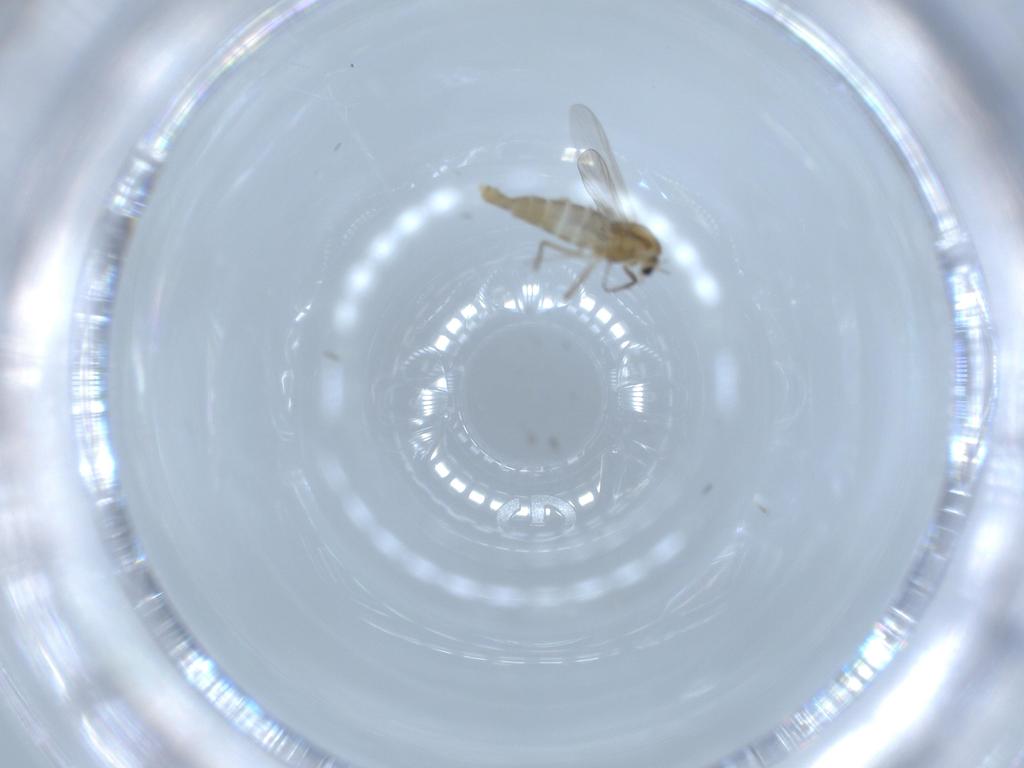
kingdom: Animalia
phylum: Arthropoda
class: Insecta
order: Diptera
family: Chironomidae
